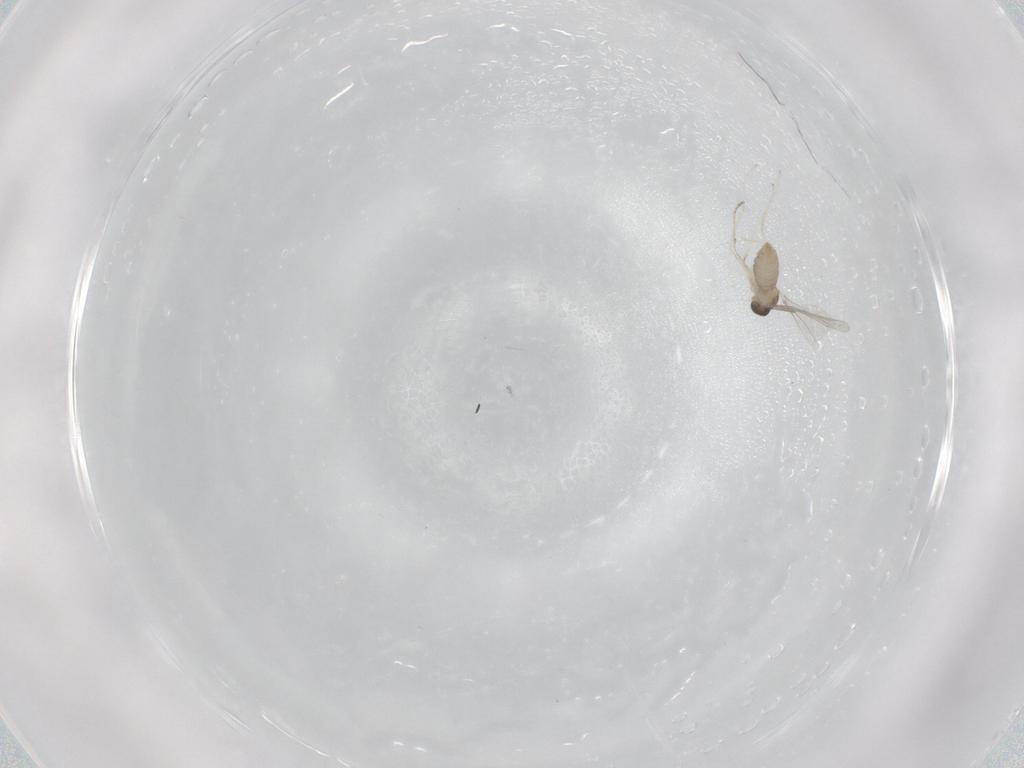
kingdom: Animalia
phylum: Arthropoda
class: Insecta
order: Diptera
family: Cecidomyiidae
